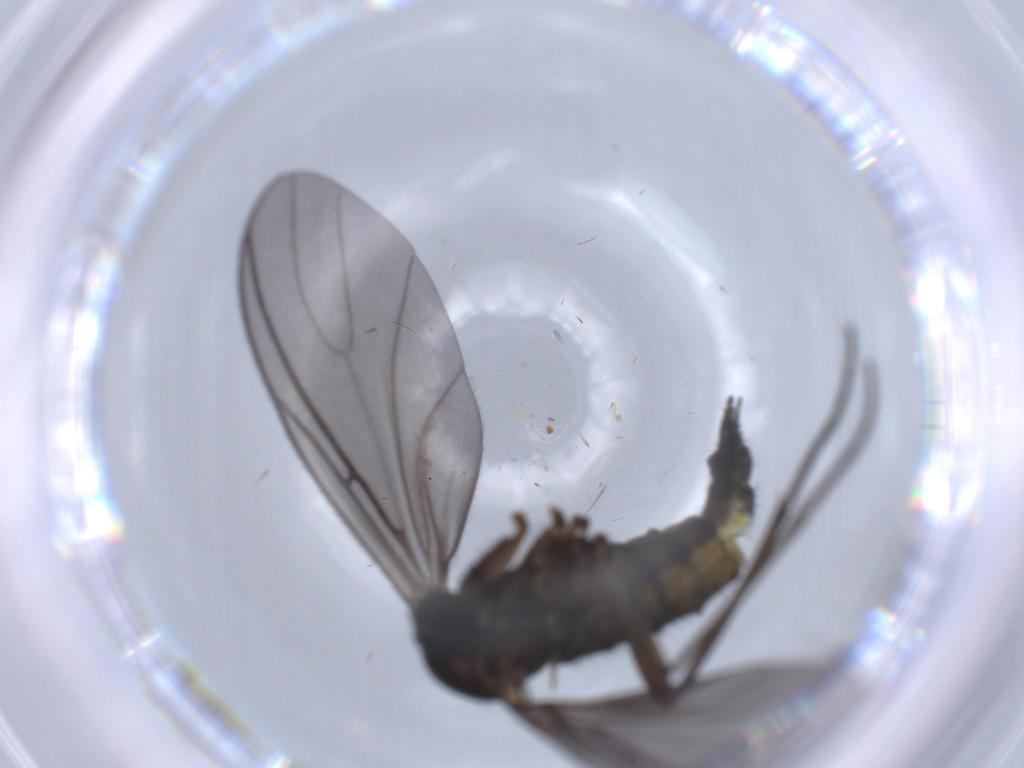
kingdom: Animalia
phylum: Arthropoda
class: Insecta
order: Diptera
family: Sciaridae
